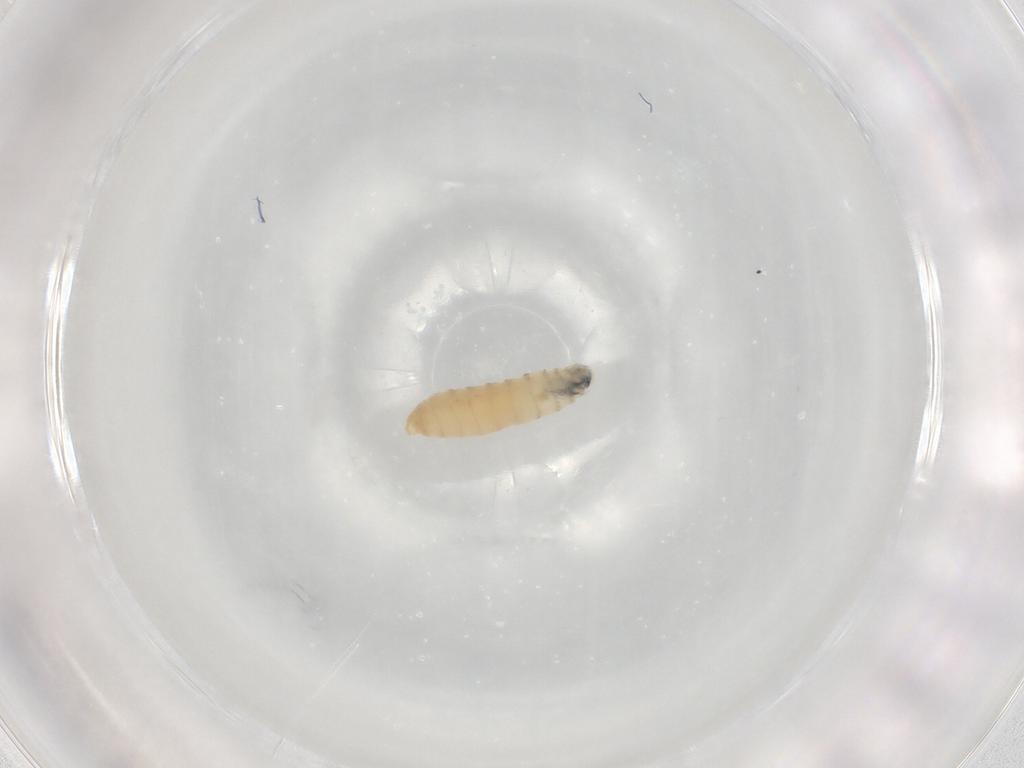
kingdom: Animalia
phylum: Arthropoda
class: Insecta
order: Diptera
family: Sarcophagidae
